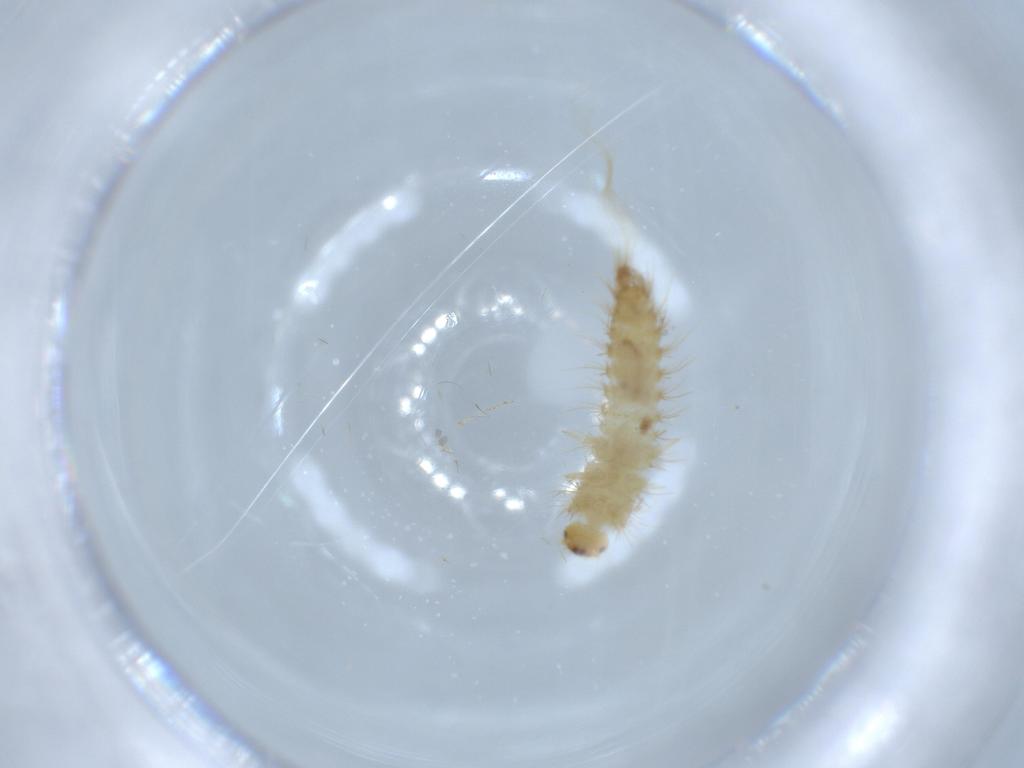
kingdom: Animalia
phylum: Arthropoda
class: Insecta
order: Coleoptera
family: Dermestidae
